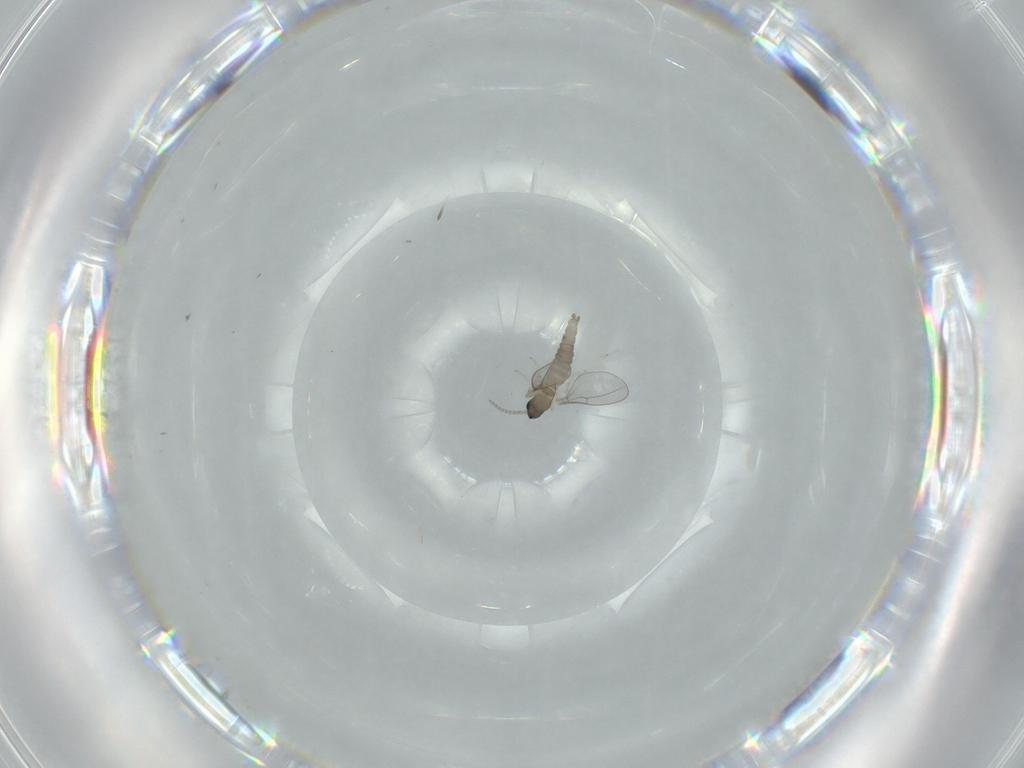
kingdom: Animalia
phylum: Arthropoda
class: Insecta
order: Diptera
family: Cecidomyiidae
